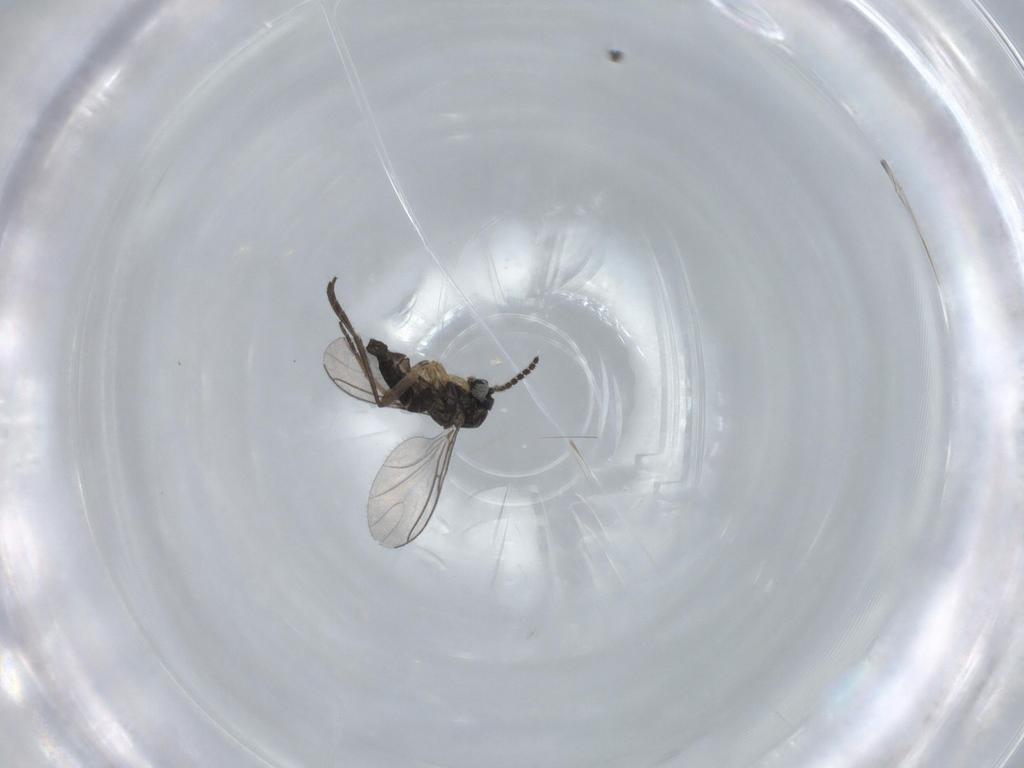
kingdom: Animalia
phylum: Arthropoda
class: Insecta
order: Diptera
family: Sciaridae
